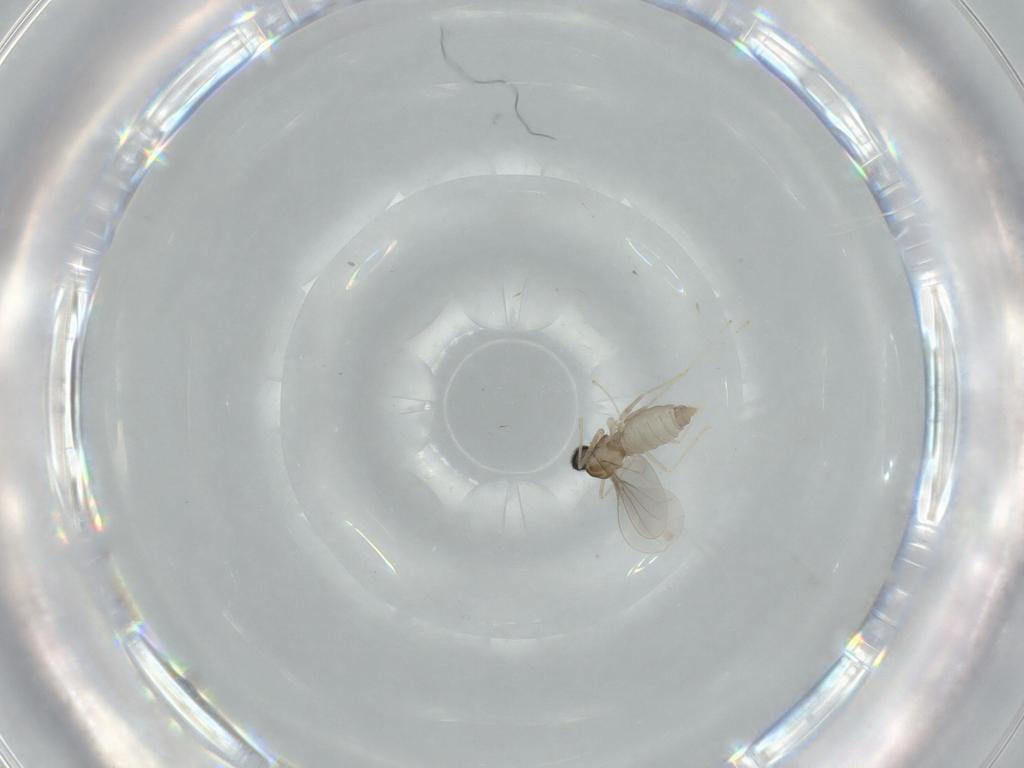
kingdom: Animalia
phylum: Arthropoda
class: Insecta
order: Diptera
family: Cecidomyiidae
